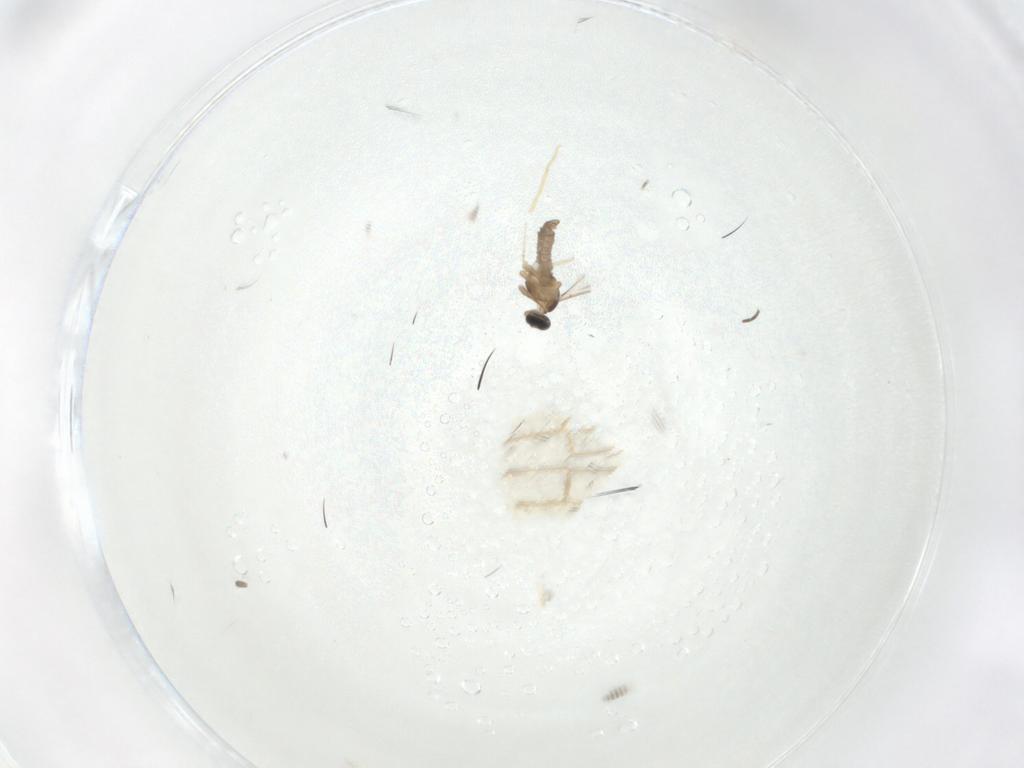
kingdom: Animalia
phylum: Arthropoda
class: Insecta
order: Diptera
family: Cecidomyiidae
